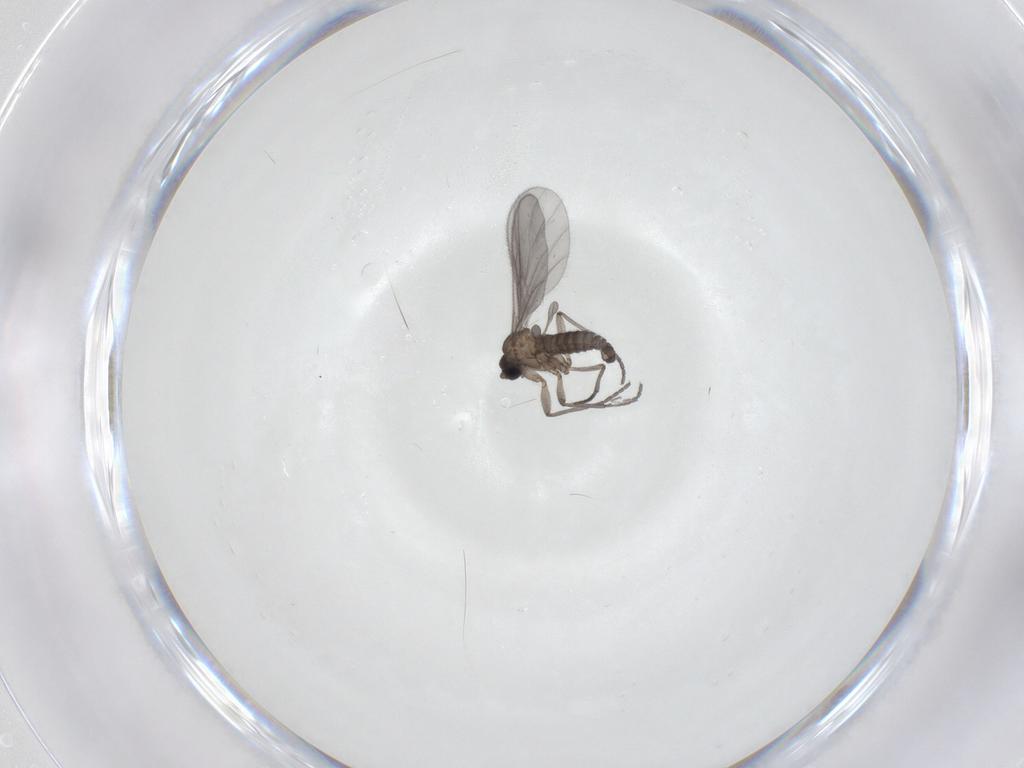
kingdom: Animalia
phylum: Arthropoda
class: Insecta
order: Diptera
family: Sciaridae
